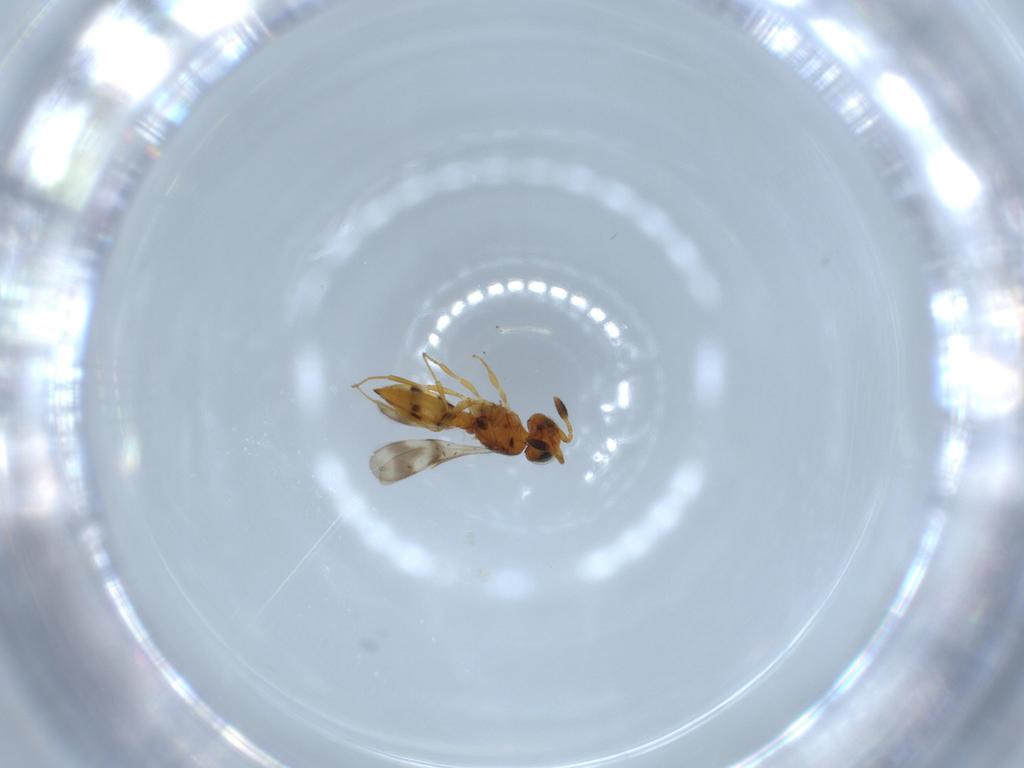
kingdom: Animalia
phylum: Arthropoda
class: Insecta
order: Hymenoptera
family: Scelionidae
